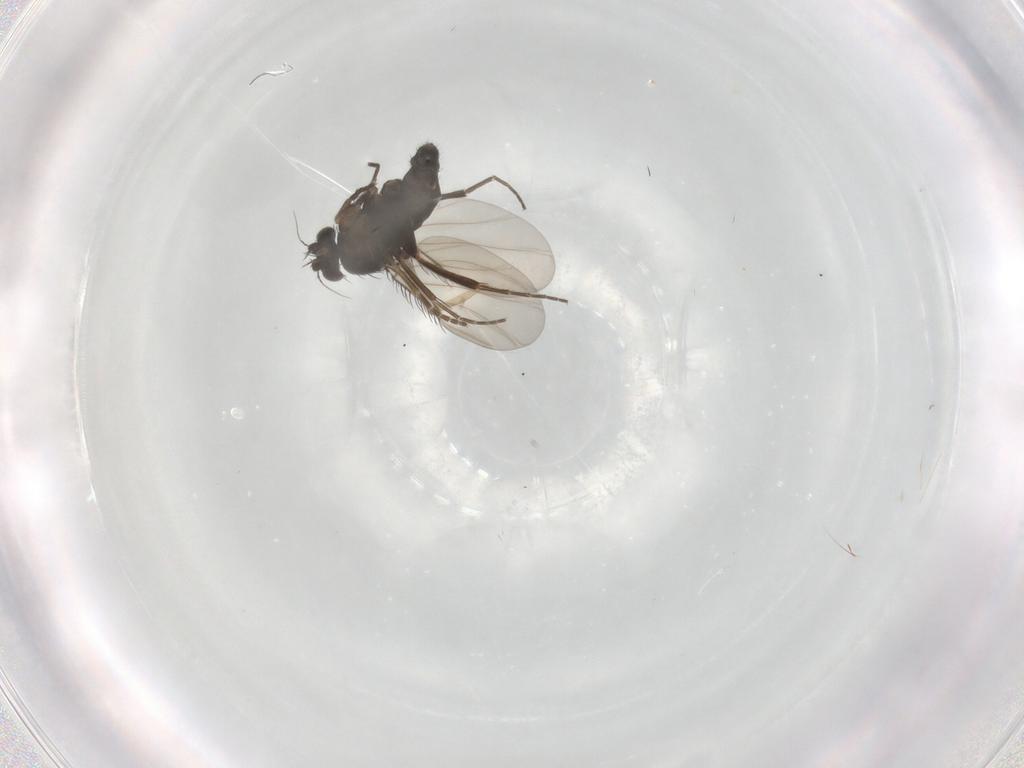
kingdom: Animalia
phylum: Arthropoda
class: Insecta
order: Diptera
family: Phoridae
